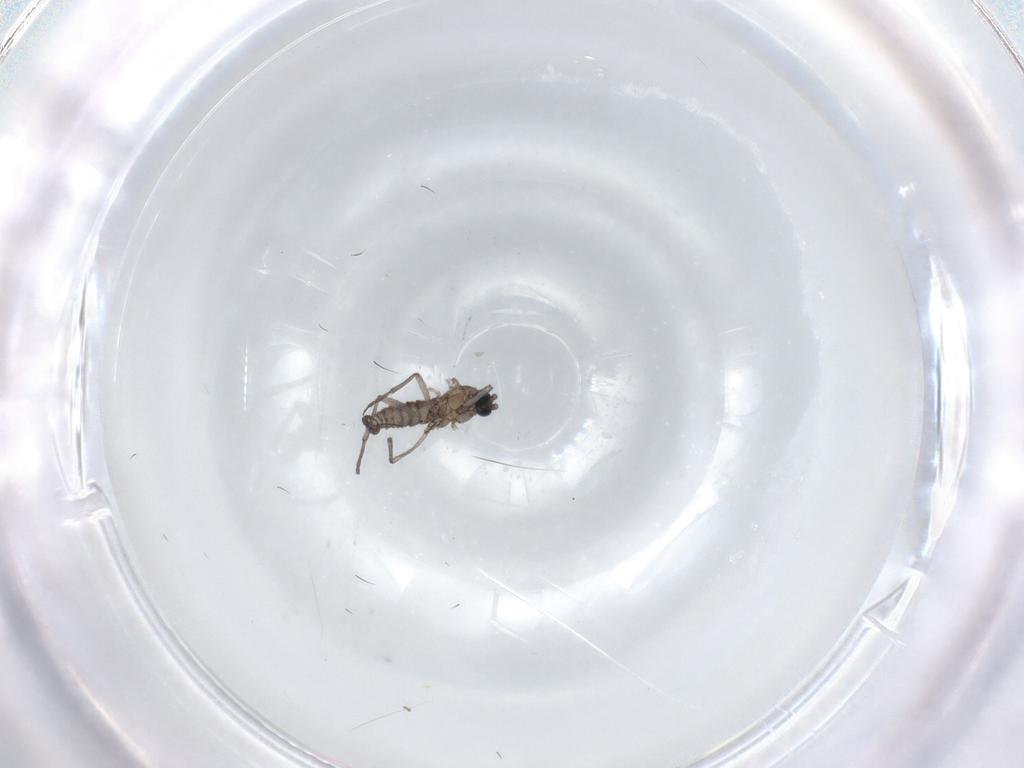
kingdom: Animalia
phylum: Arthropoda
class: Insecta
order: Diptera
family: Sciaridae
